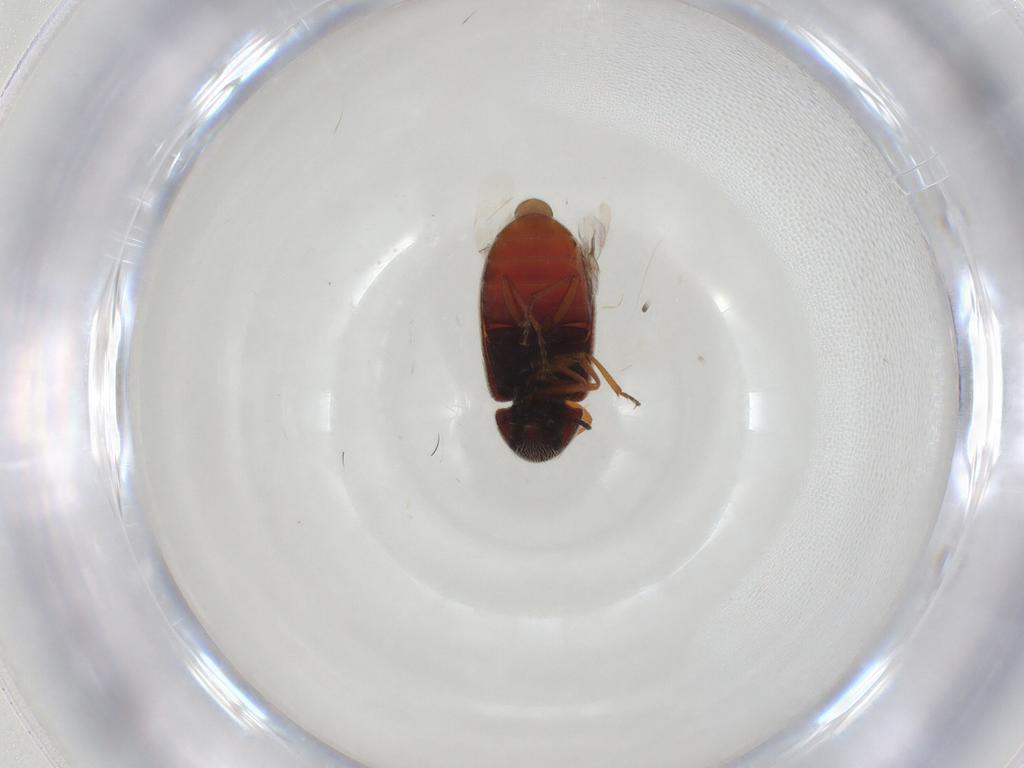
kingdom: Animalia
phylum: Arthropoda
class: Insecta
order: Coleoptera
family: Rhadalidae
